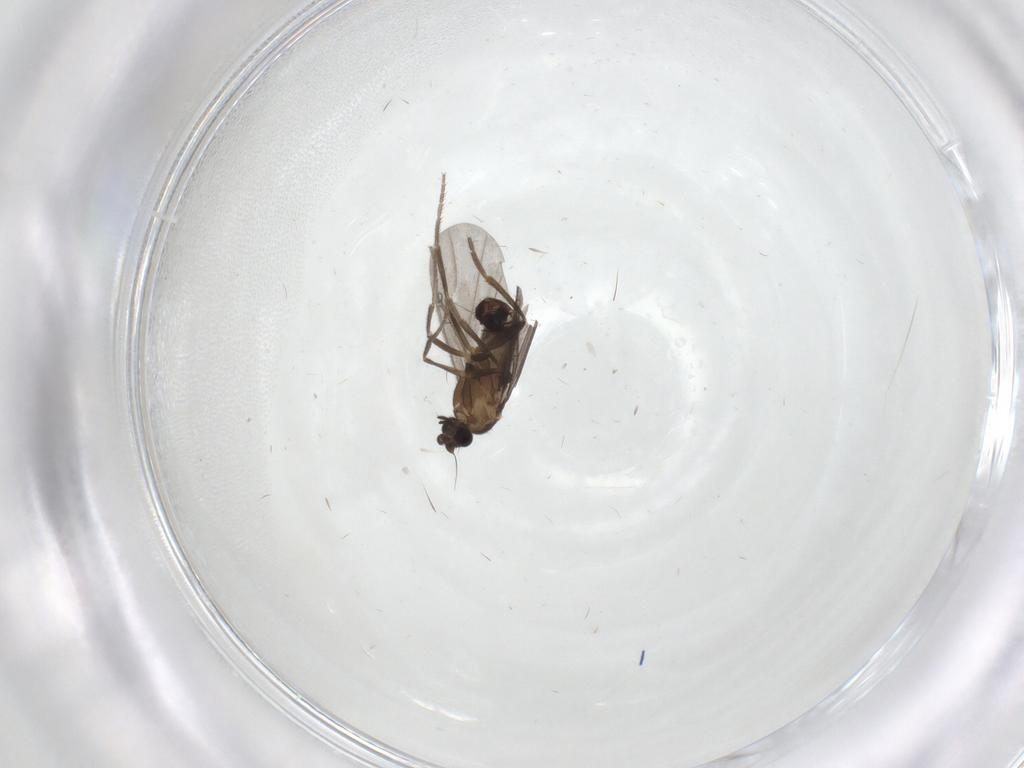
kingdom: Animalia
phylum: Arthropoda
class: Insecta
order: Diptera
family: Phoridae
